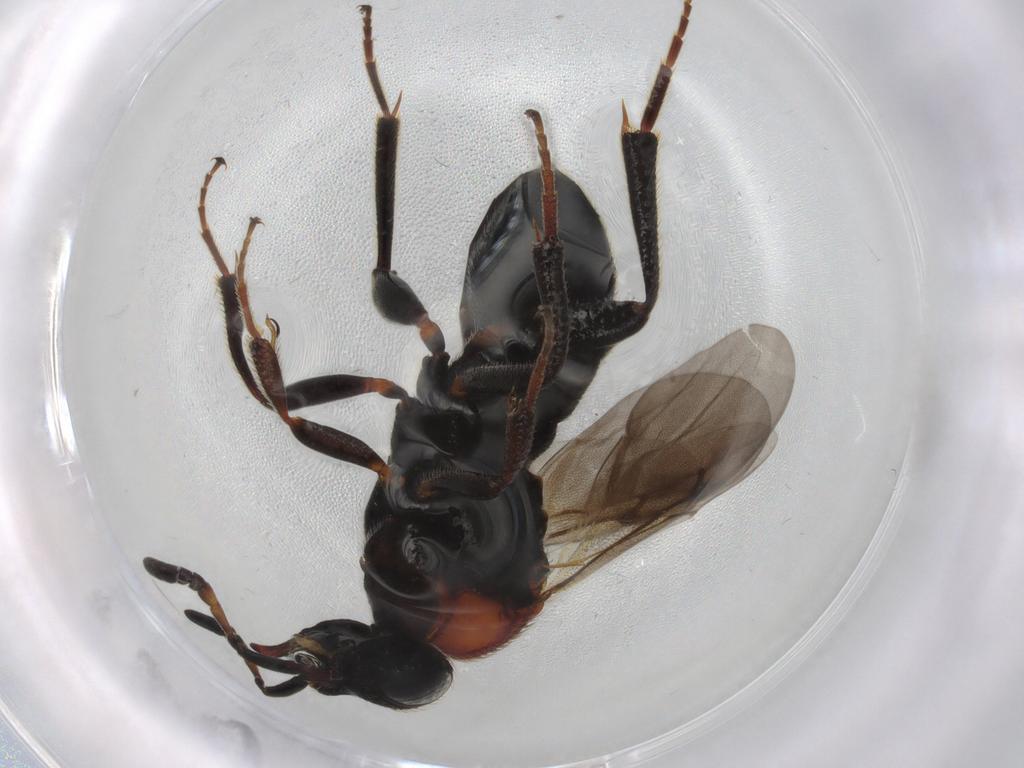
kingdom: Animalia
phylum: Arthropoda
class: Insecta
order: Hymenoptera
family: Scelionidae
